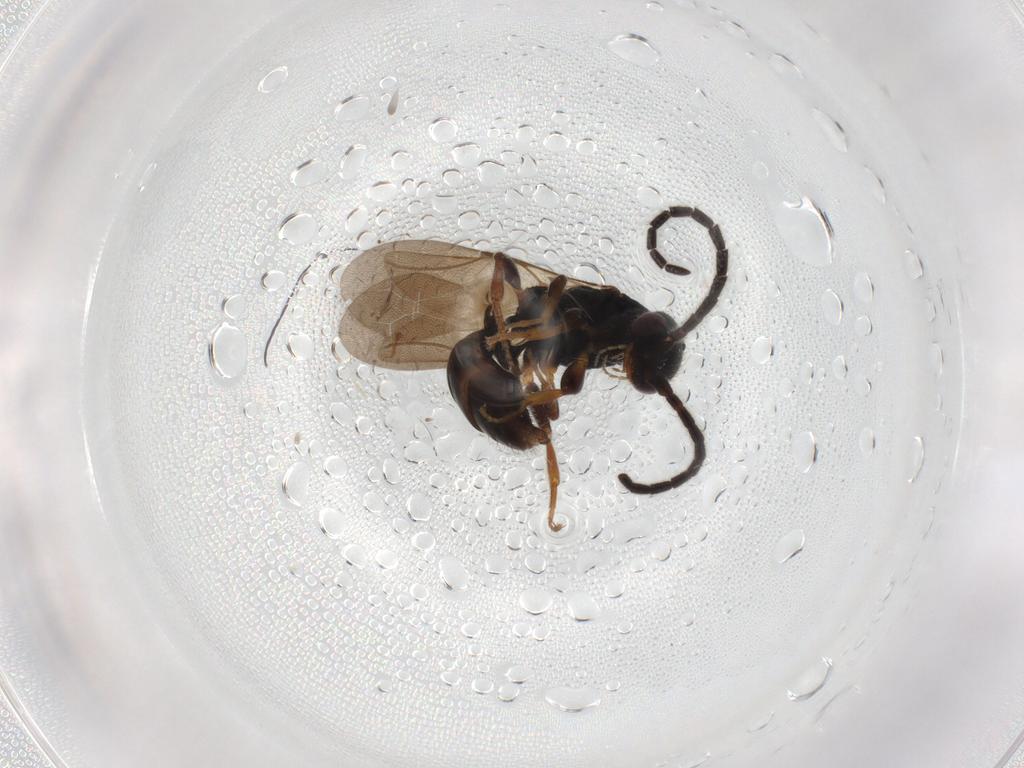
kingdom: Animalia
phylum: Arthropoda
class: Insecta
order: Hymenoptera
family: Bethylidae
